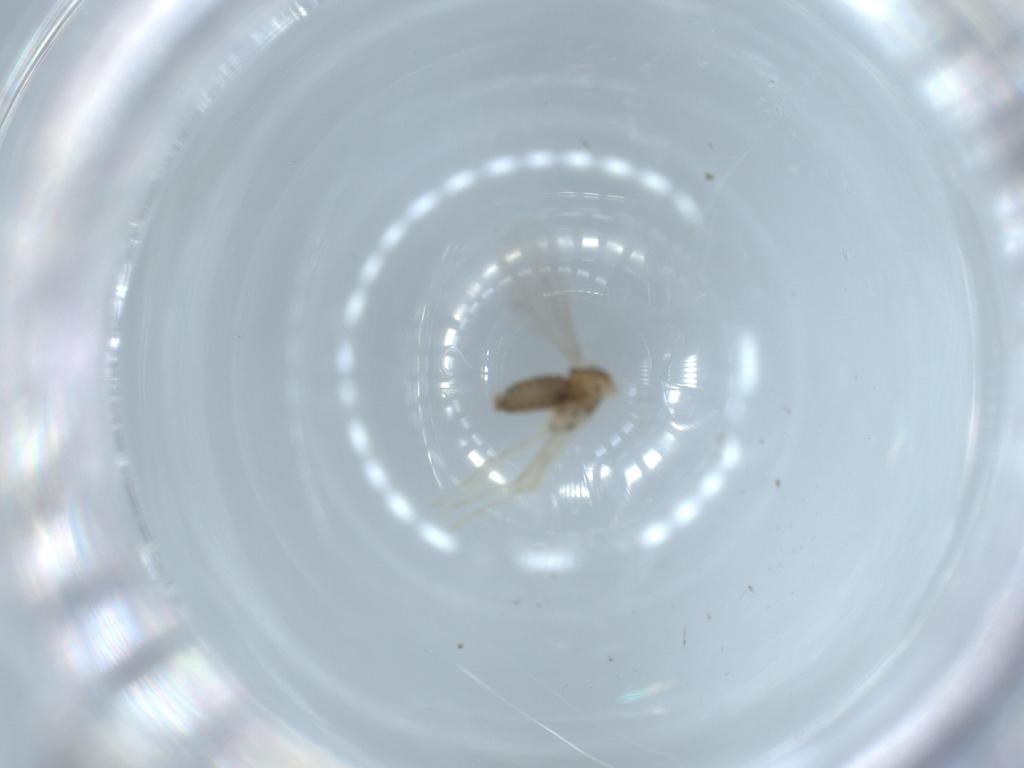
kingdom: Animalia
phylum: Arthropoda
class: Insecta
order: Diptera
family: Cecidomyiidae
